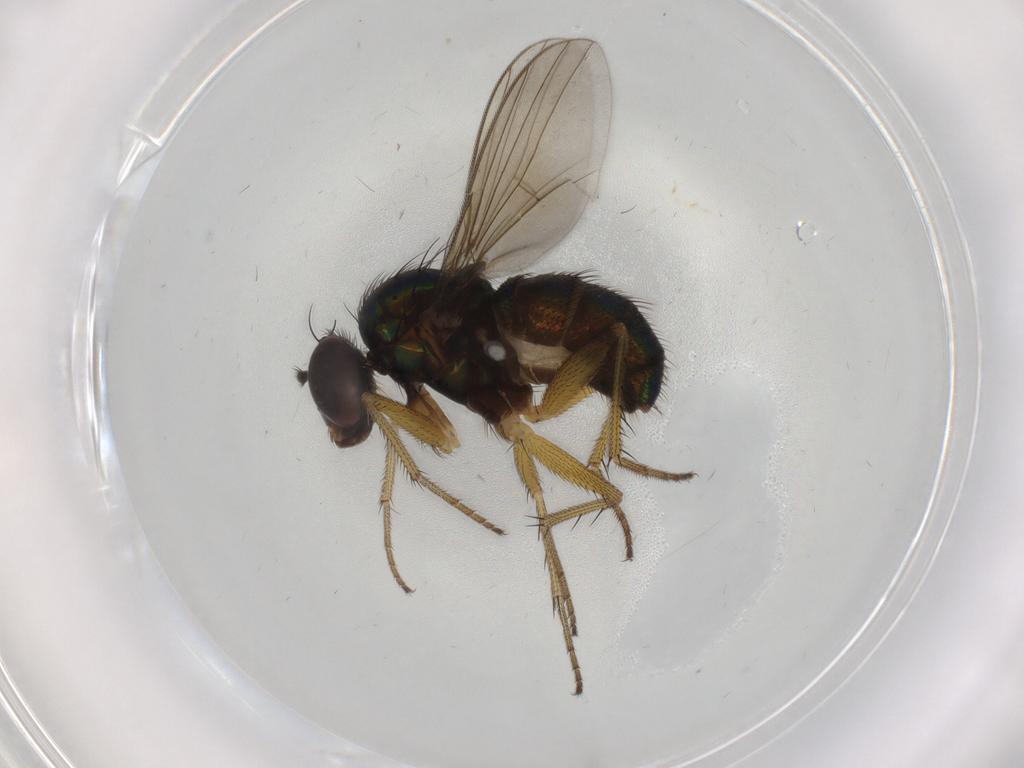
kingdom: Animalia
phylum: Arthropoda
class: Insecta
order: Diptera
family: Dolichopodidae
